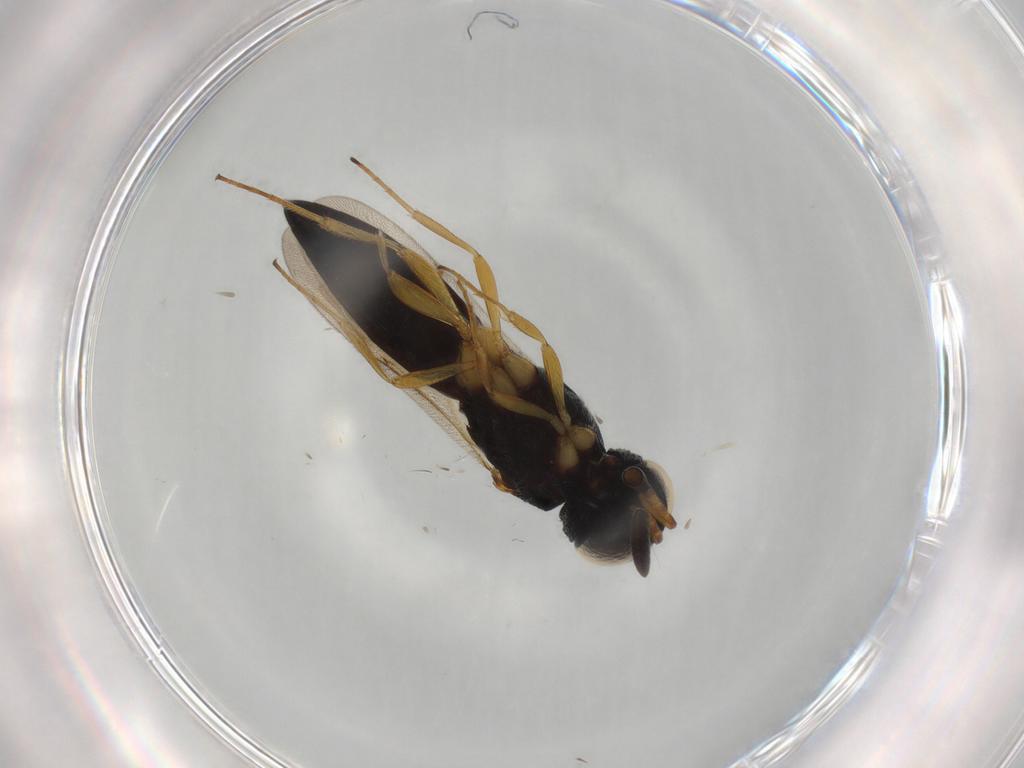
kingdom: Animalia
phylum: Arthropoda
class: Insecta
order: Hymenoptera
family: Scelionidae
